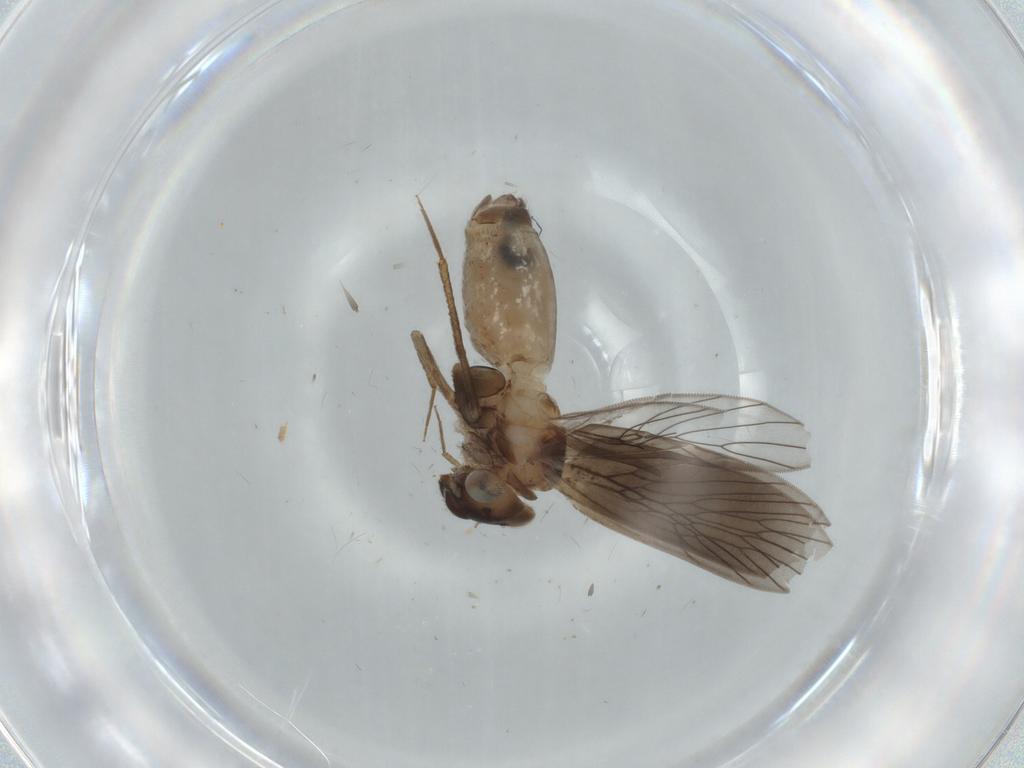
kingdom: Animalia
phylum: Arthropoda
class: Insecta
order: Psocodea
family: Lepidopsocidae
